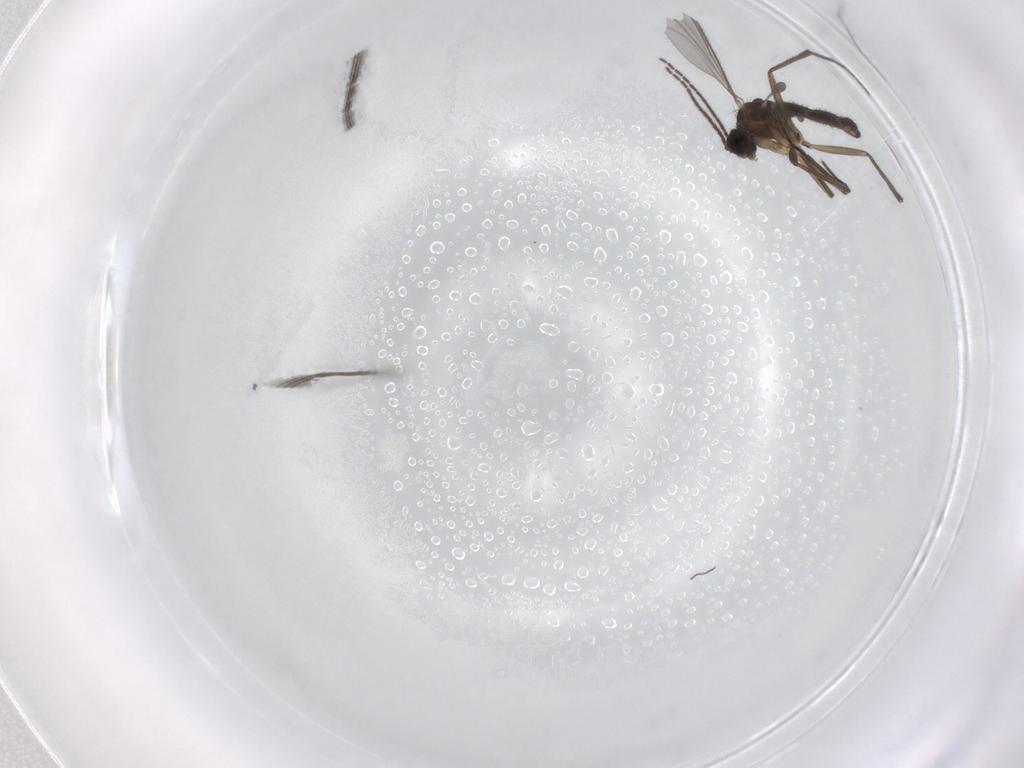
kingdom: Animalia
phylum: Arthropoda
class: Insecta
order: Diptera
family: Sciaridae
